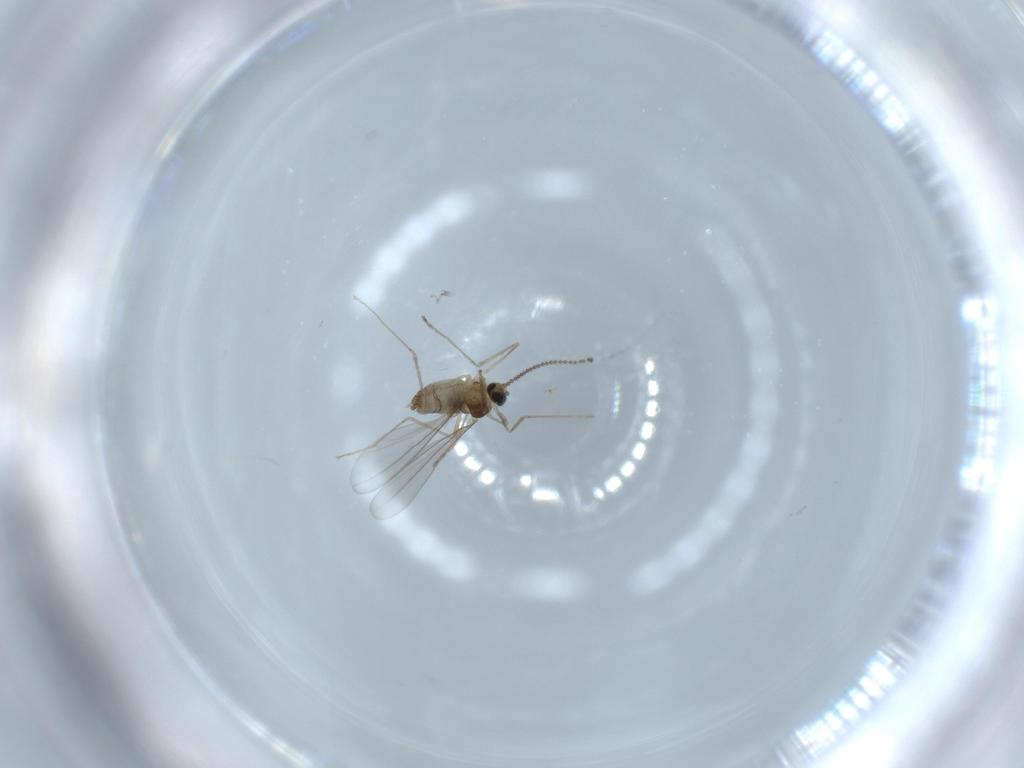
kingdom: Animalia
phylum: Arthropoda
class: Insecta
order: Diptera
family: Cecidomyiidae
